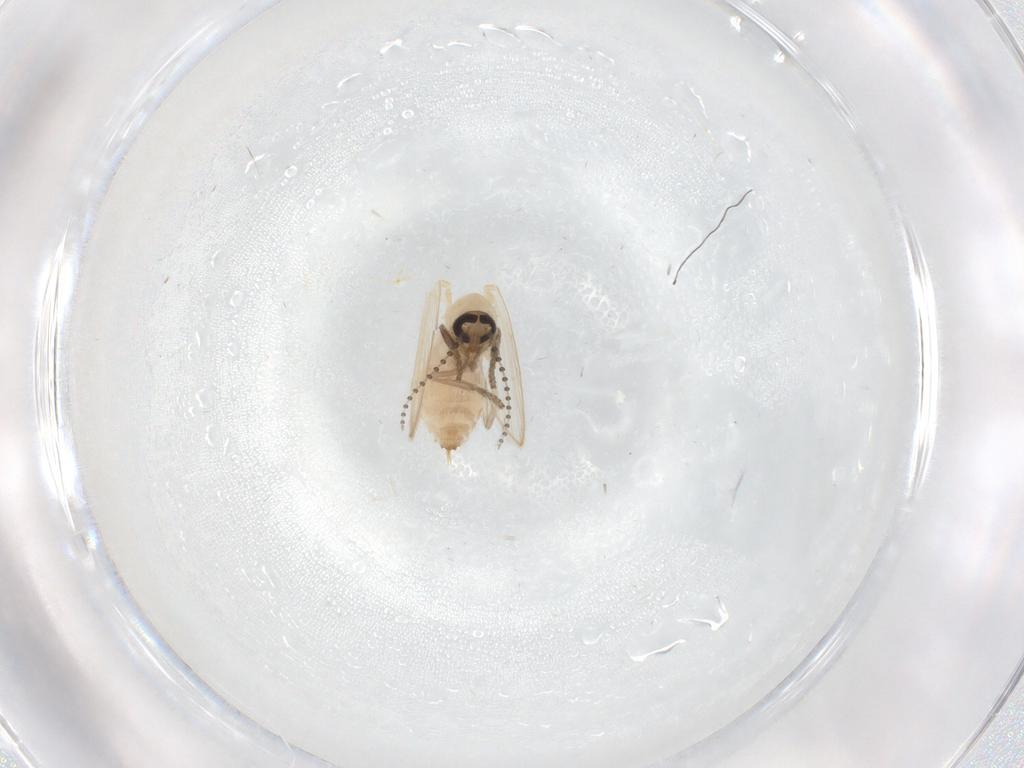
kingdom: Animalia
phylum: Arthropoda
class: Insecta
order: Diptera
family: Psychodidae
